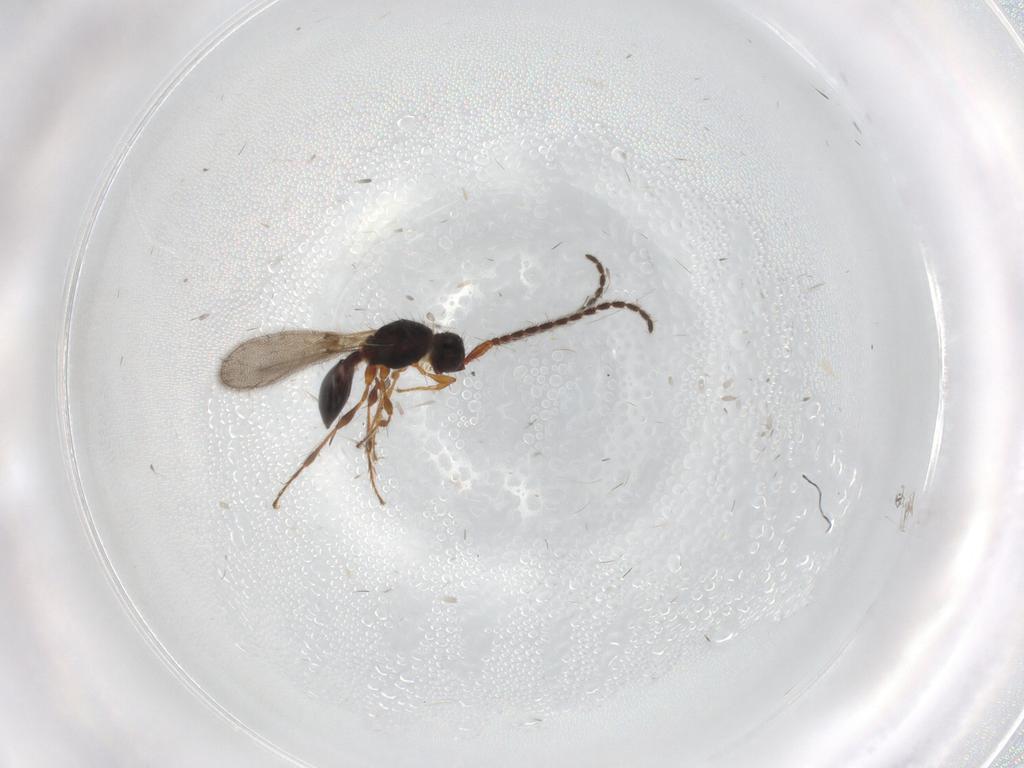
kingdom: Animalia
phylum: Arthropoda
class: Insecta
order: Hymenoptera
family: Diapriidae
